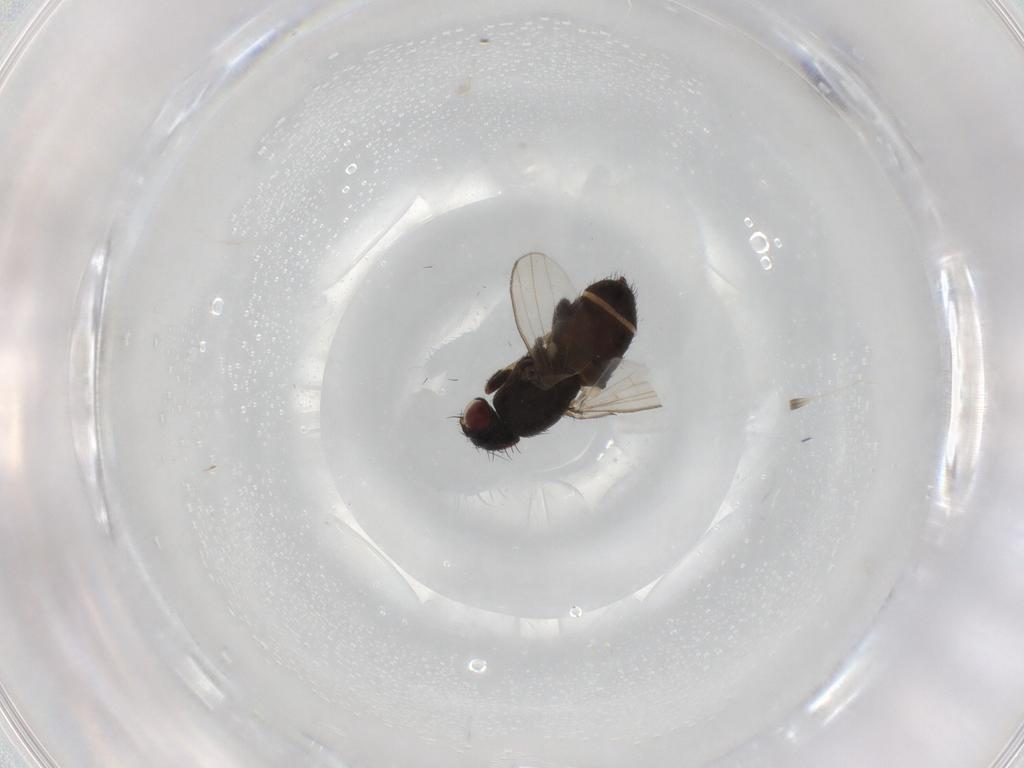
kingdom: Animalia
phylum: Arthropoda
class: Insecta
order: Diptera
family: Milichiidae
